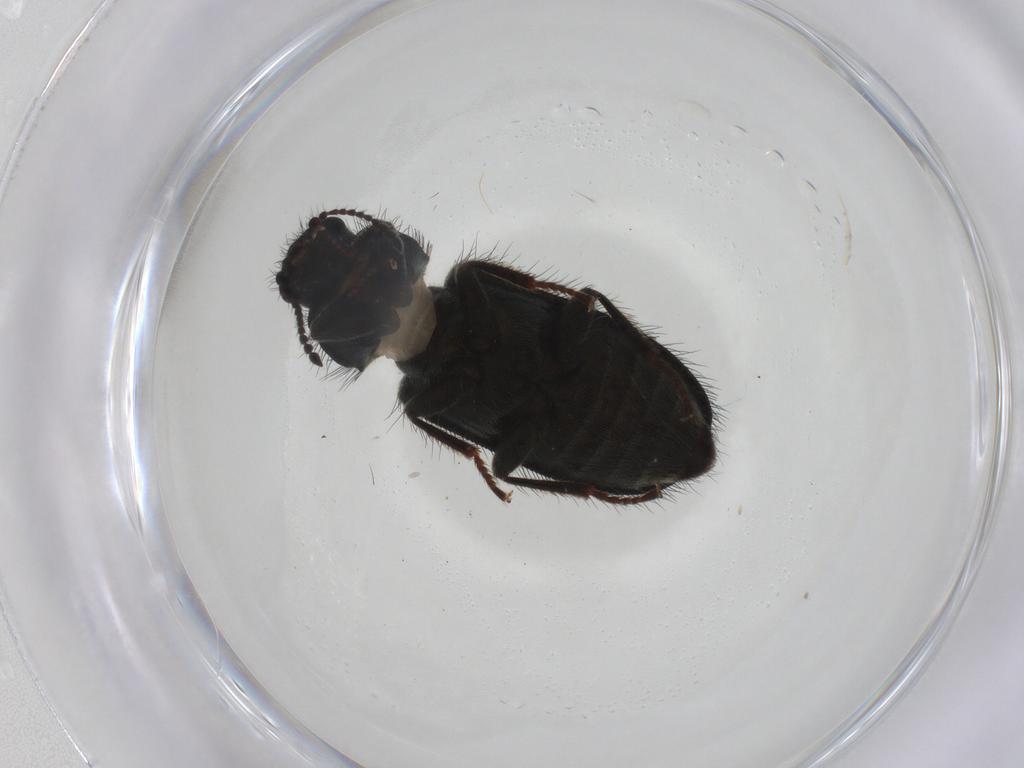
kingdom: Animalia
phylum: Arthropoda
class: Insecta
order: Coleoptera
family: Melyridae
